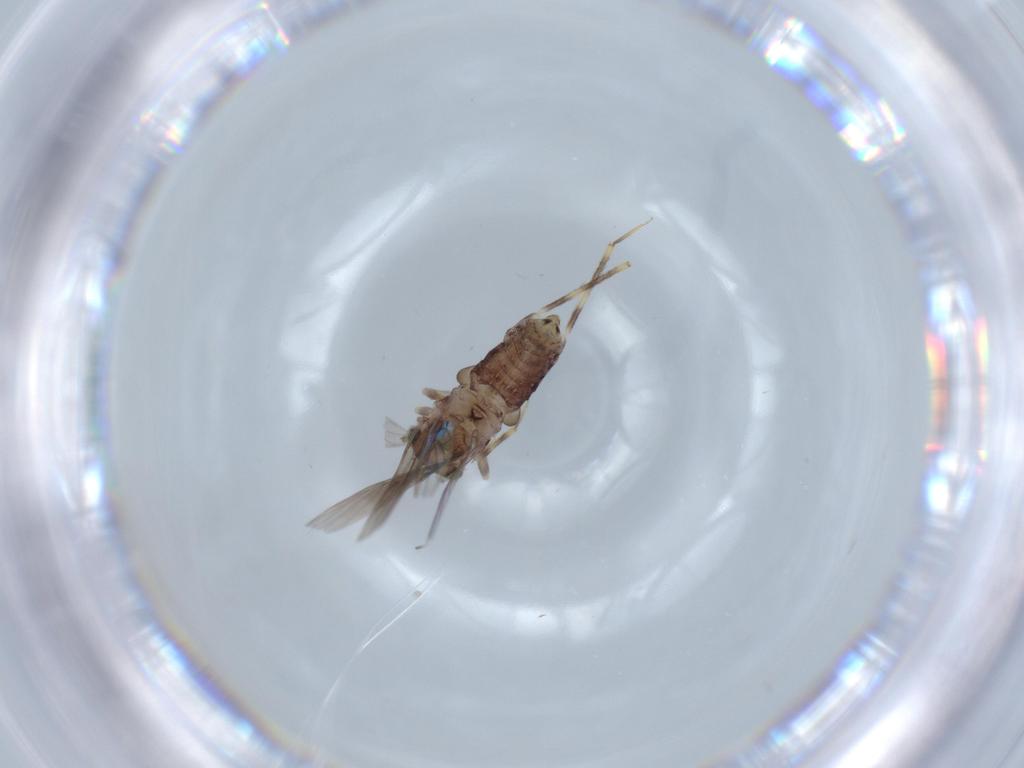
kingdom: Animalia
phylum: Arthropoda
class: Insecta
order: Psocodea
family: Lepidopsocidae
